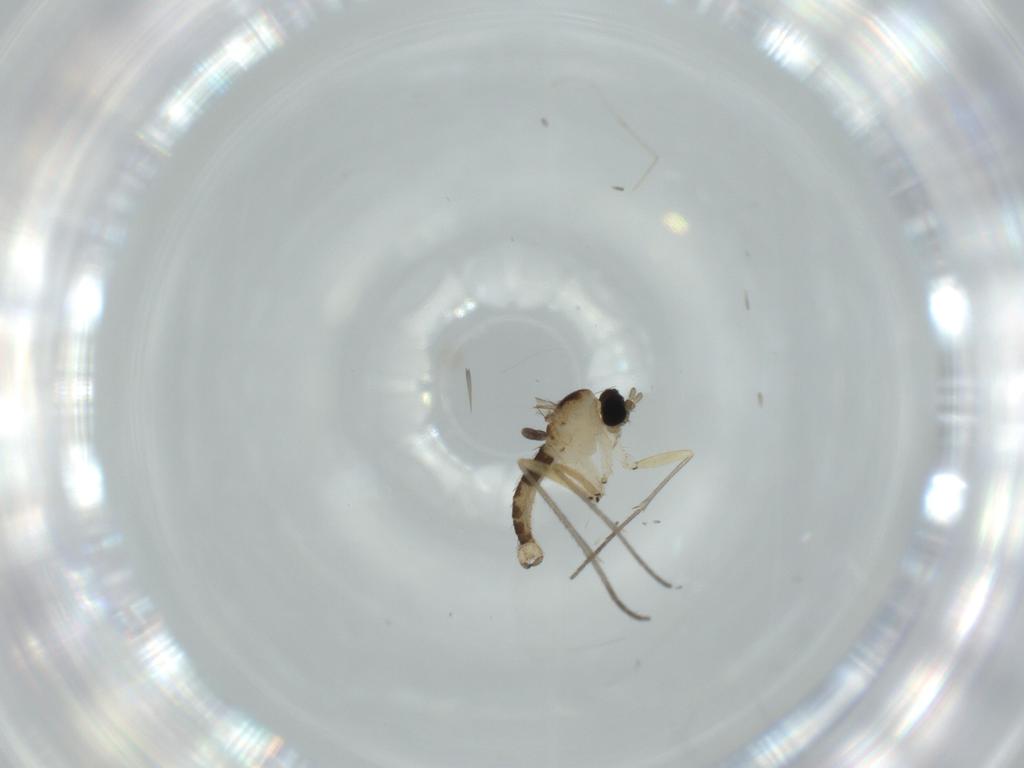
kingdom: Animalia
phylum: Arthropoda
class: Insecta
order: Diptera
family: Sciaridae
